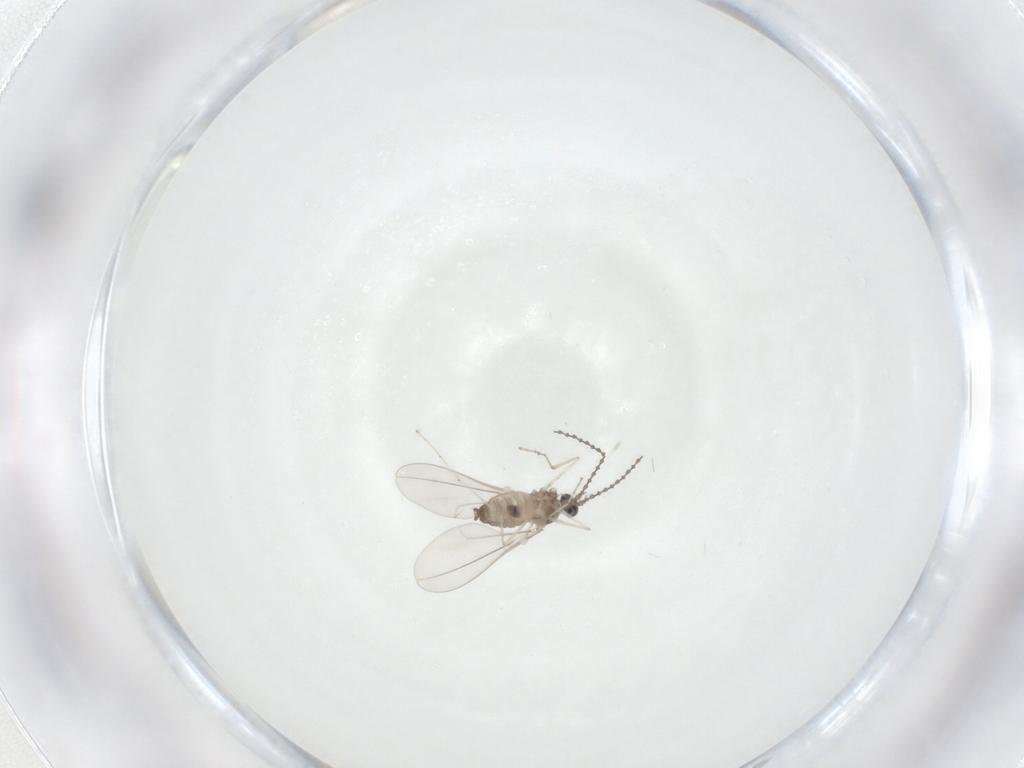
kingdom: Animalia
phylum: Arthropoda
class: Insecta
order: Diptera
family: Cecidomyiidae
